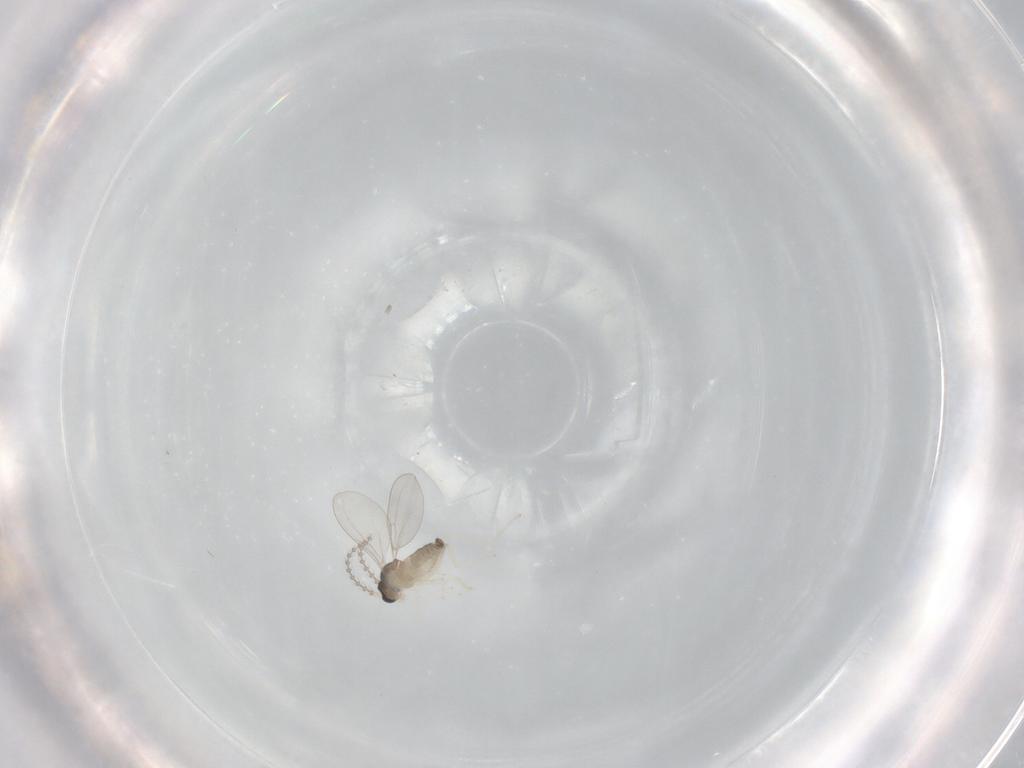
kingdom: Animalia
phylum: Arthropoda
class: Insecta
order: Diptera
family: Cecidomyiidae
